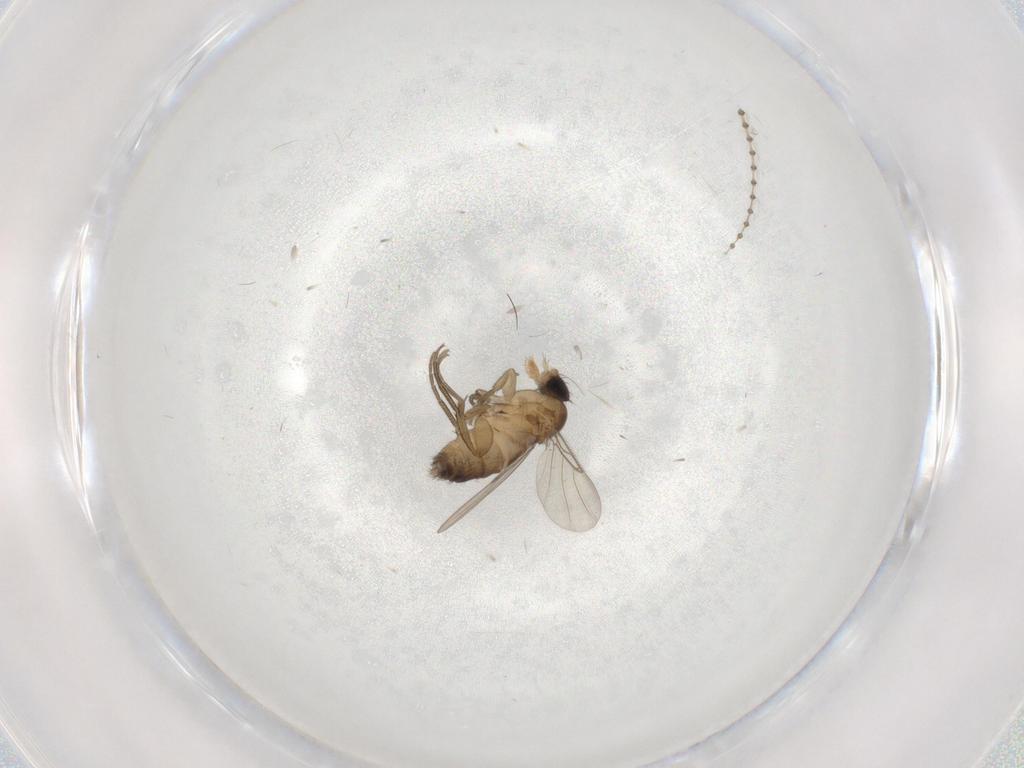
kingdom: Animalia
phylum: Arthropoda
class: Insecta
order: Diptera
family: Phoridae
